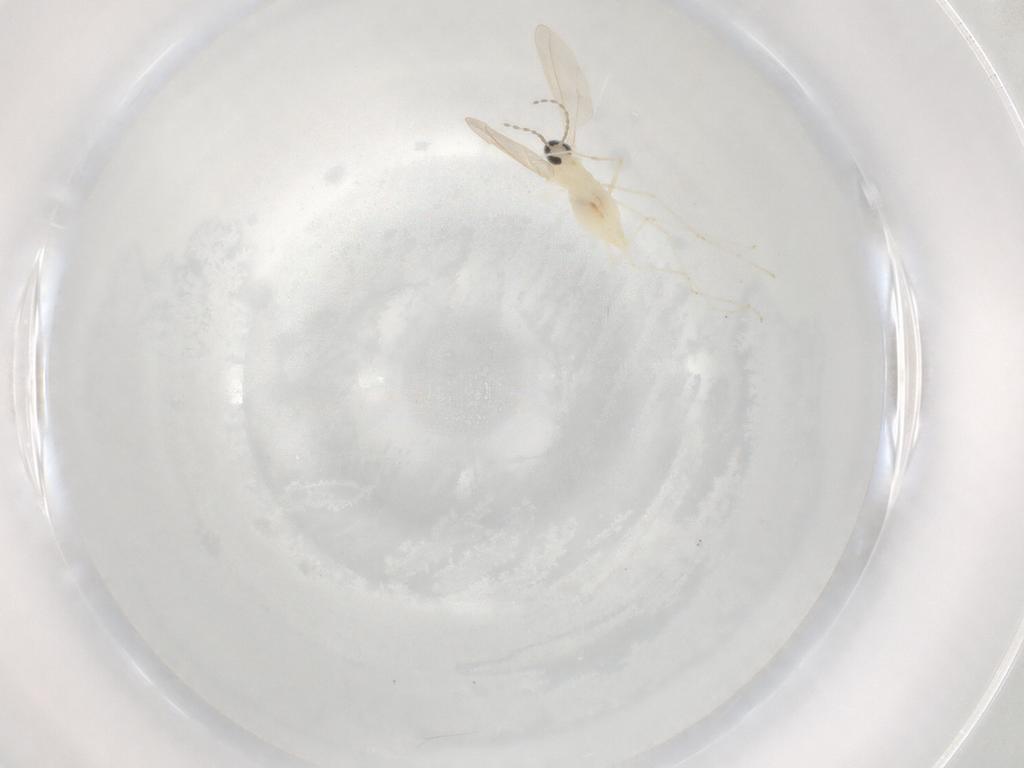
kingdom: Animalia
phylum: Arthropoda
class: Insecta
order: Diptera
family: Cecidomyiidae
